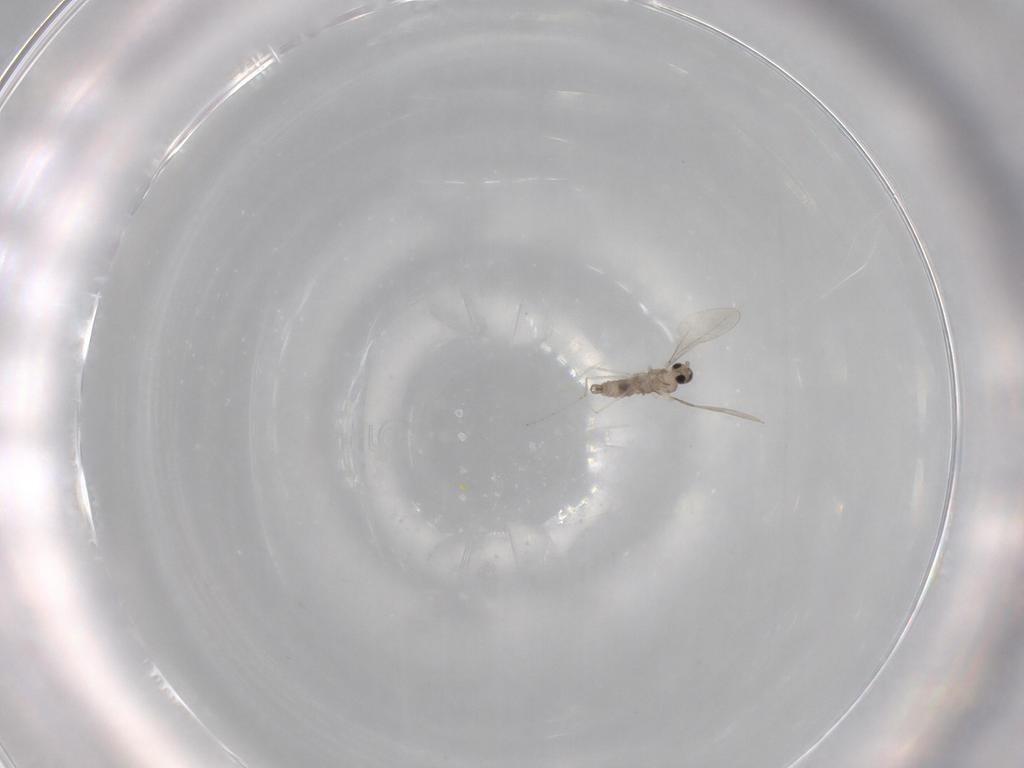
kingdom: Animalia
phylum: Arthropoda
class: Insecta
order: Diptera
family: Cecidomyiidae
